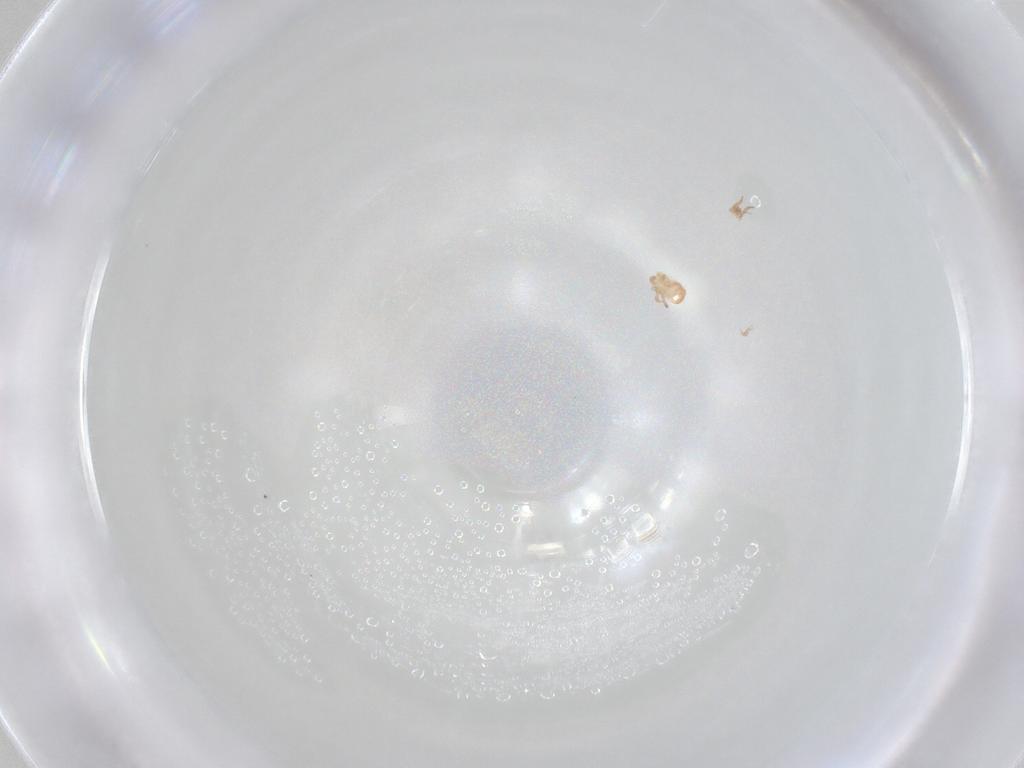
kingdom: Animalia
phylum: Arthropoda
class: Arachnida
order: Mesostigmata
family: Ascidae
